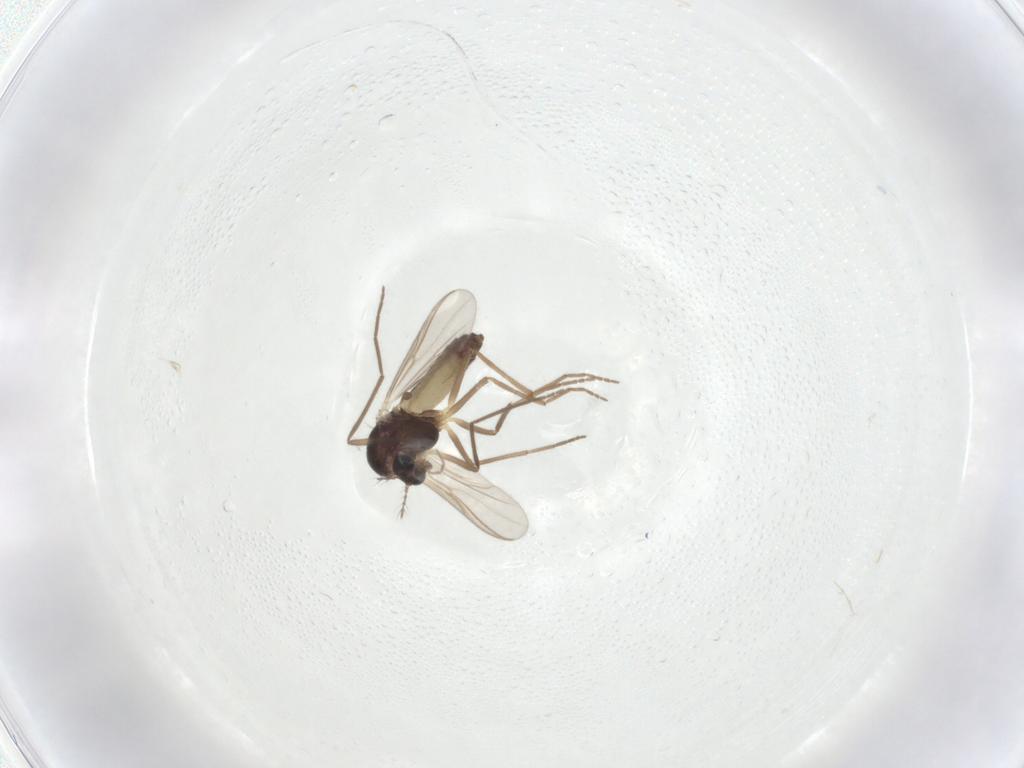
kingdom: Animalia
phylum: Arthropoda
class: Insecta
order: Diptera
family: Chironomidae
